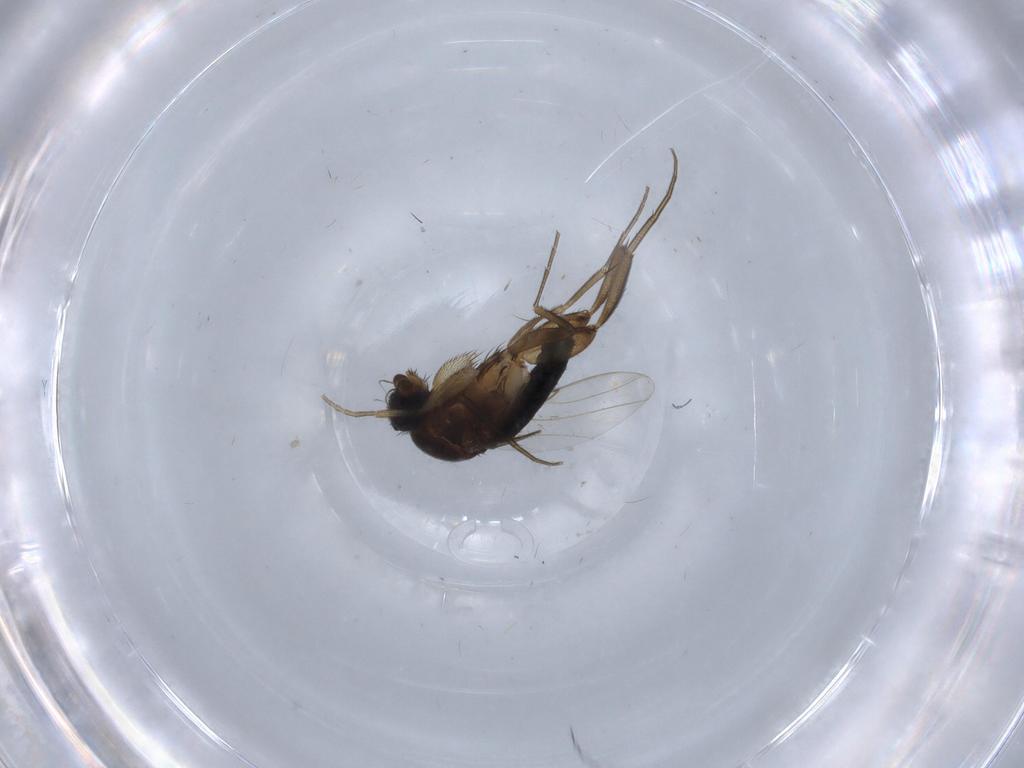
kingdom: Animalia
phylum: Arthropoda
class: Insecta
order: Diptera
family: Phoridae
